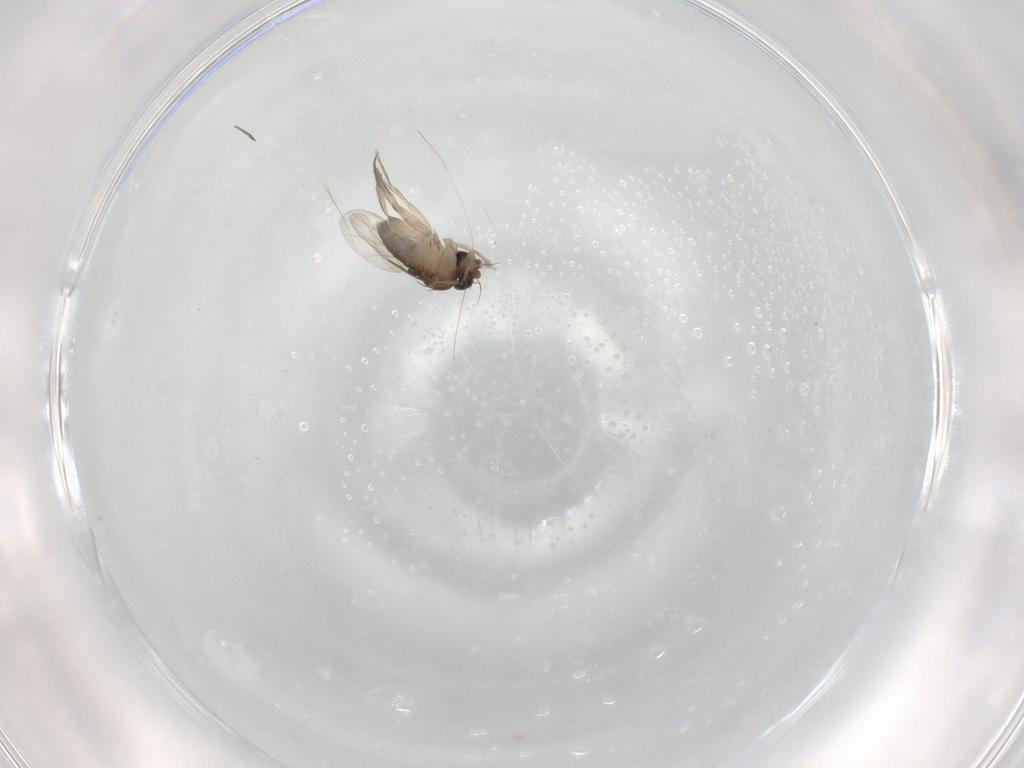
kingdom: Animalia
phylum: Arthropoda
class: Insecta
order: Diptera
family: Phoridae
